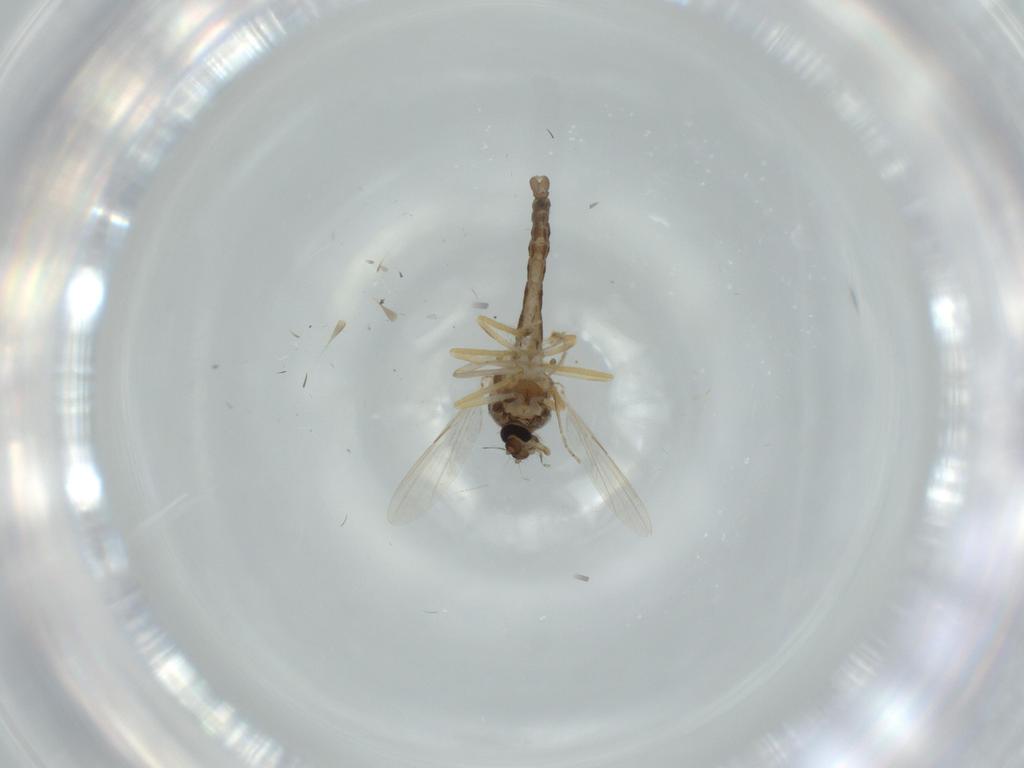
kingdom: Animalia
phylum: Arthropoda
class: Insecta
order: Diptera
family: Ceratopogonidae
